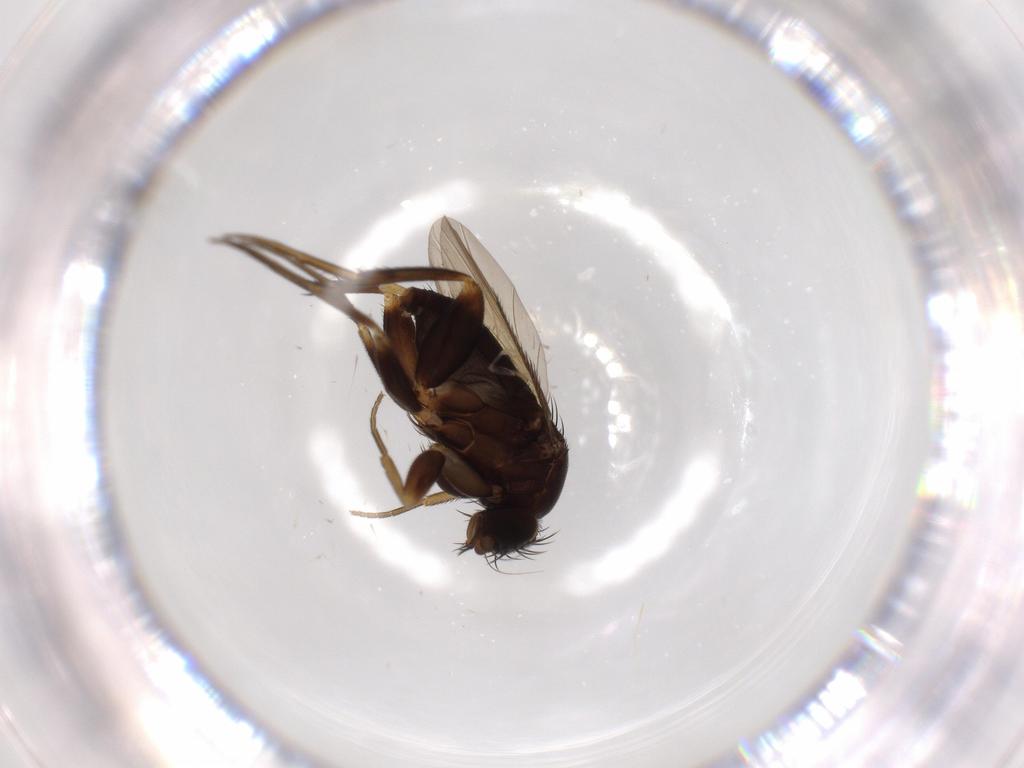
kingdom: Animalia
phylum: Arthropoda
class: Insecta
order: Diptera
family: Phoridae
